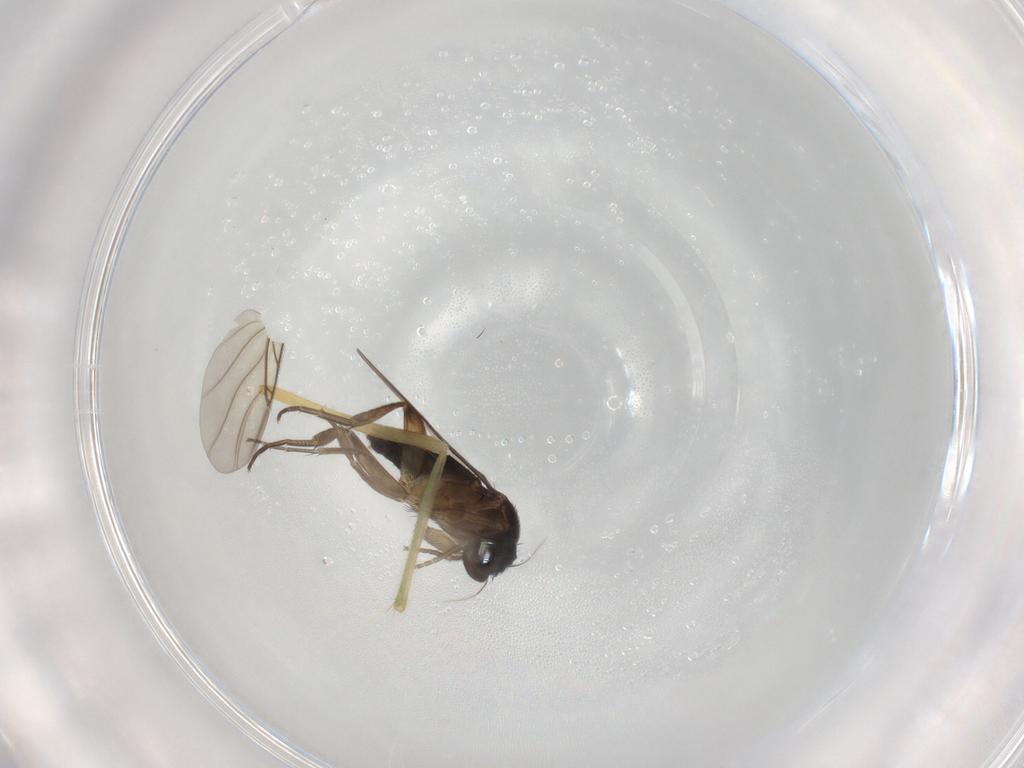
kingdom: Animalia
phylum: Arthropoda
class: Insecta
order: Diptera
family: Phoridae
